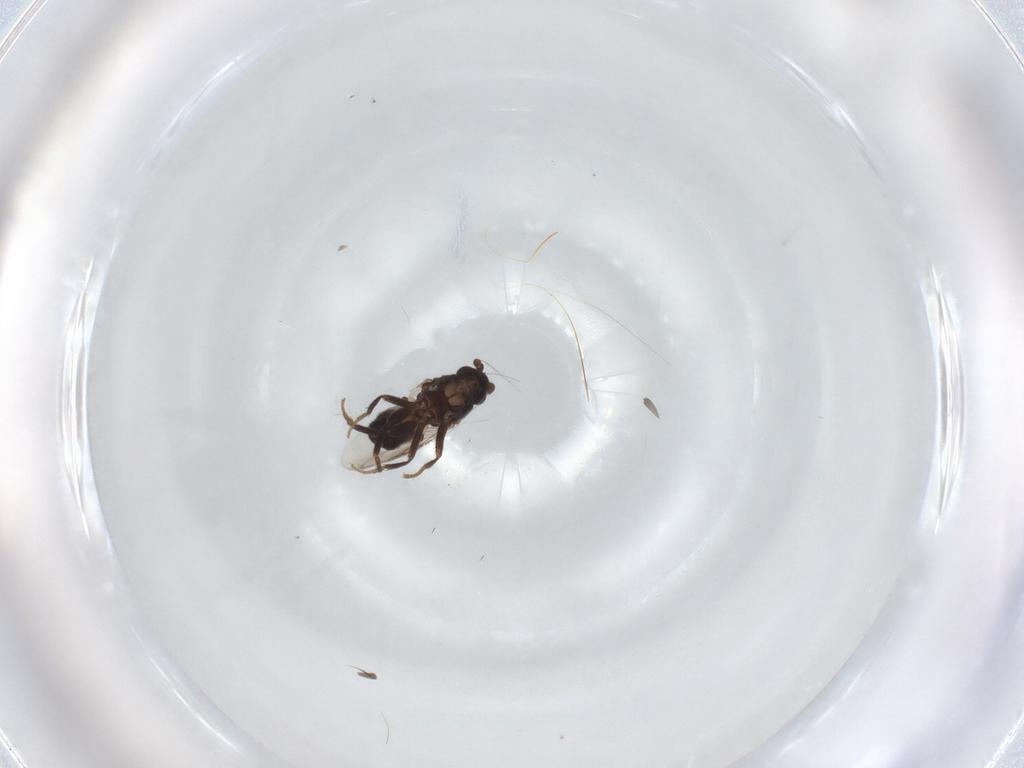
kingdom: Animalia
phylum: Arthropoda
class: Insecta
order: Diptera
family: Sphaeroceridae
